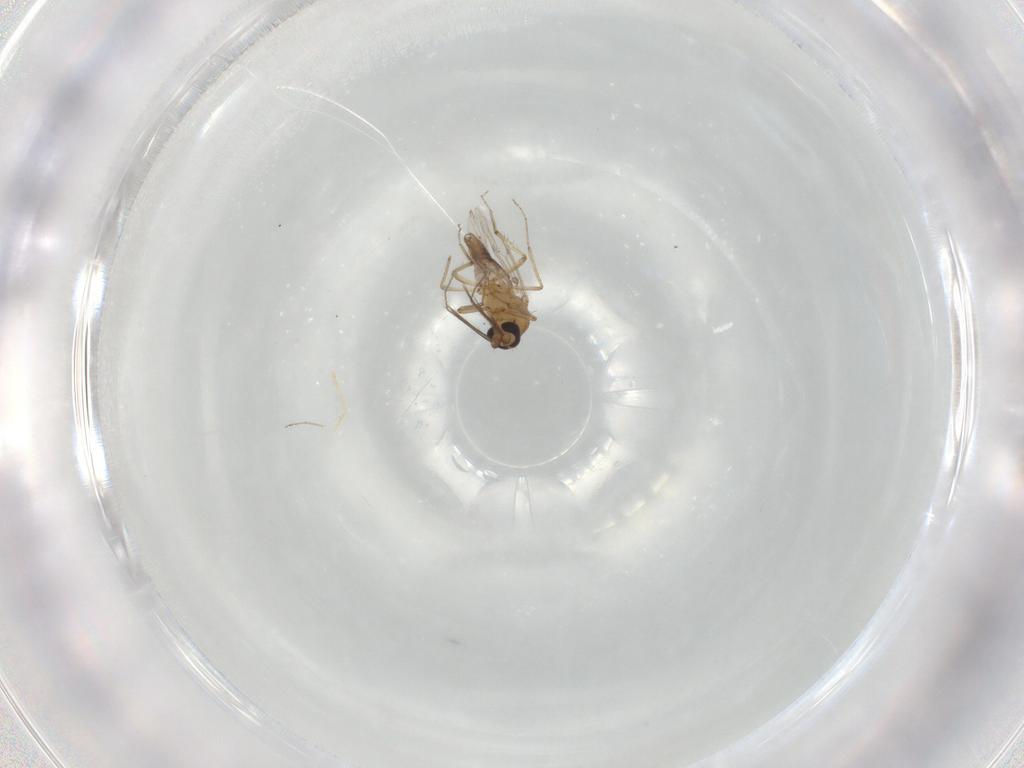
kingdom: Animalia
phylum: Arthropoda
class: Insecta
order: Diptera
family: Ceratopogonidae
